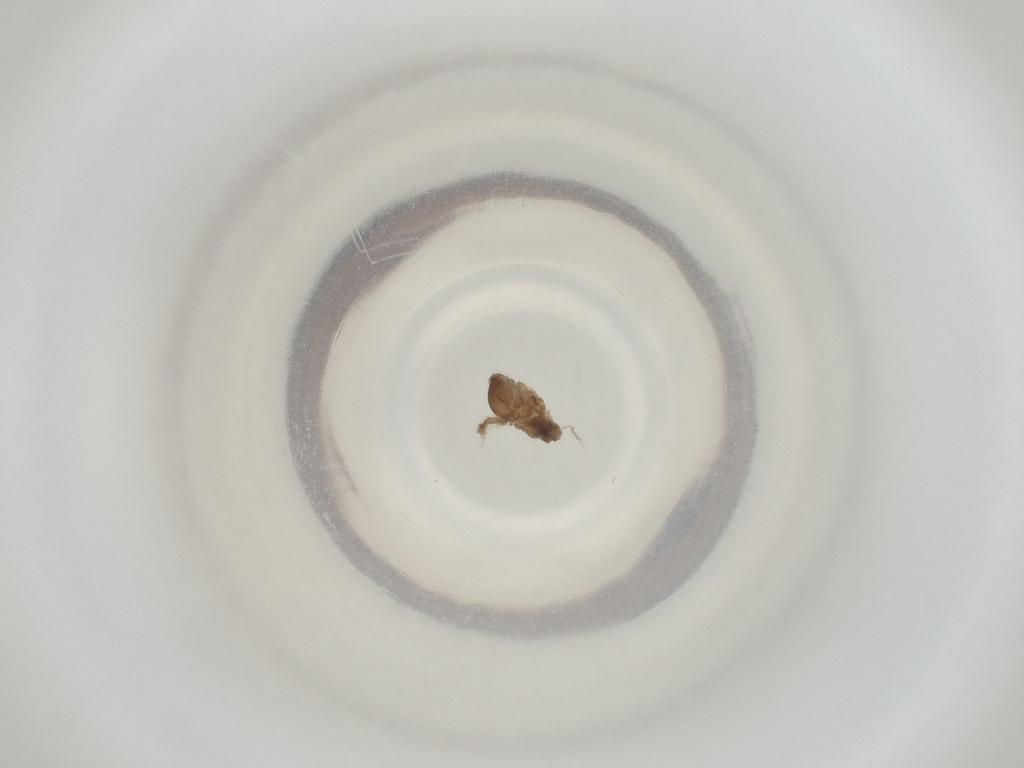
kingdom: Animalia
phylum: Arthropoda
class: Insecta
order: Diptera
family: Cecidomyiidae
